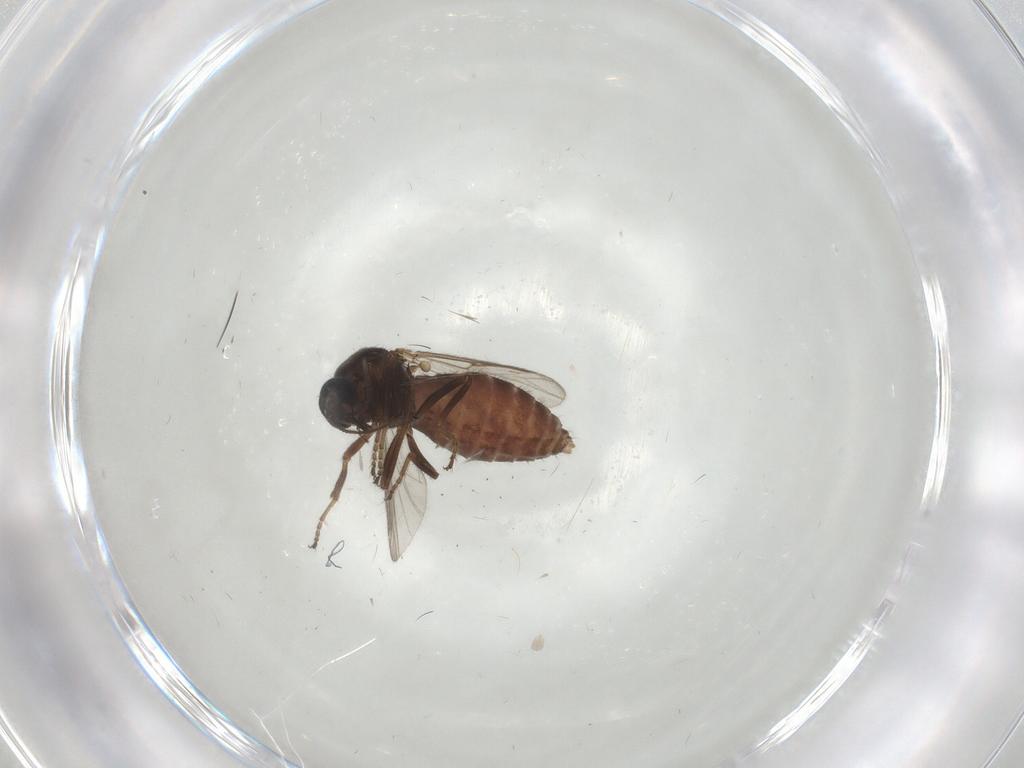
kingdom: Animalia
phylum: Arthropoda
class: Insecta
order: Diptera
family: Ceratopogonidae
